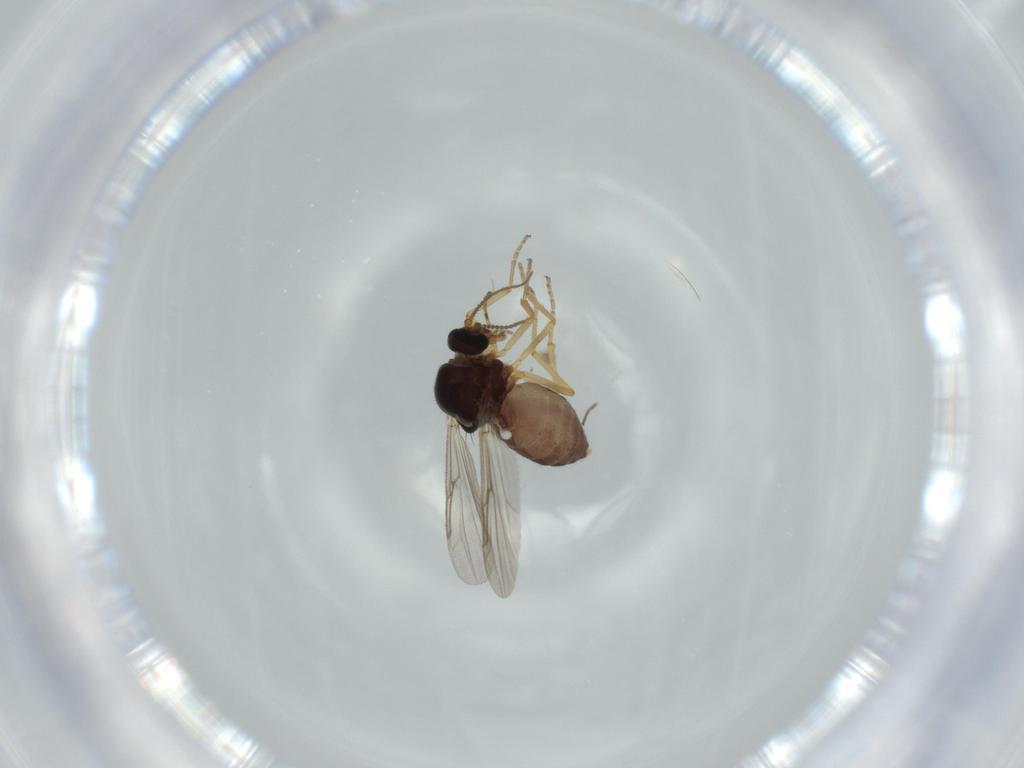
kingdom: Animalia
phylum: Arthropoda
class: Insecta
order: Diptera
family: Ceratopogonidae
